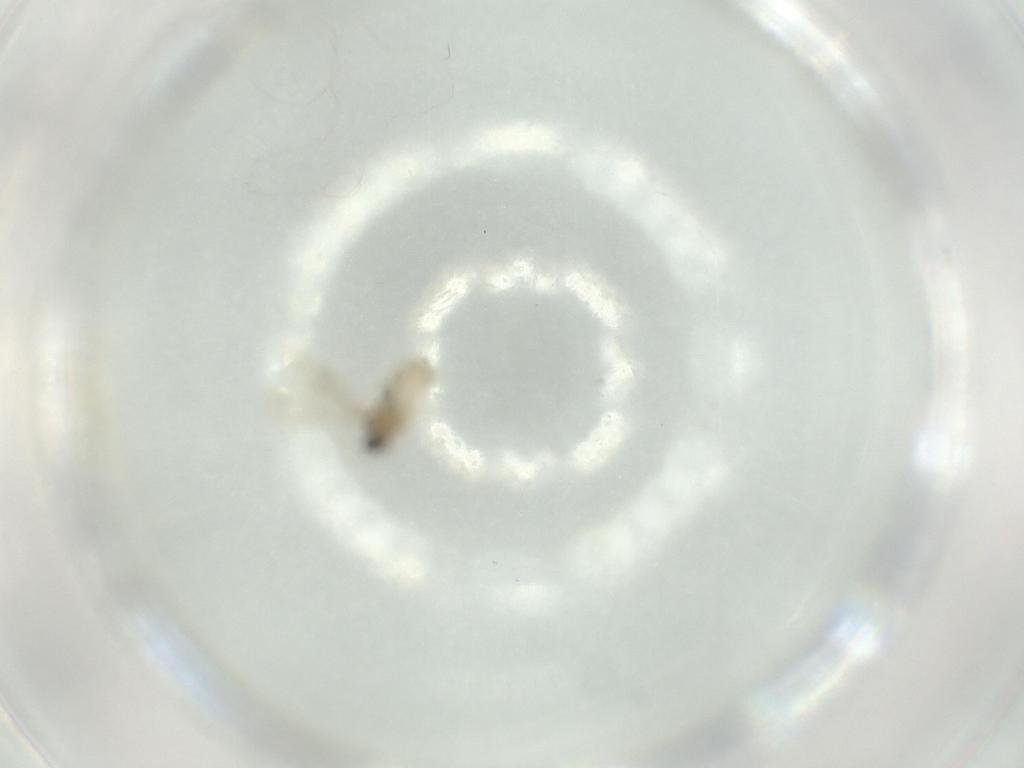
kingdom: Animalia
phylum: Arthropoda
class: Insecta
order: Diptera
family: Cecidomyiidae
